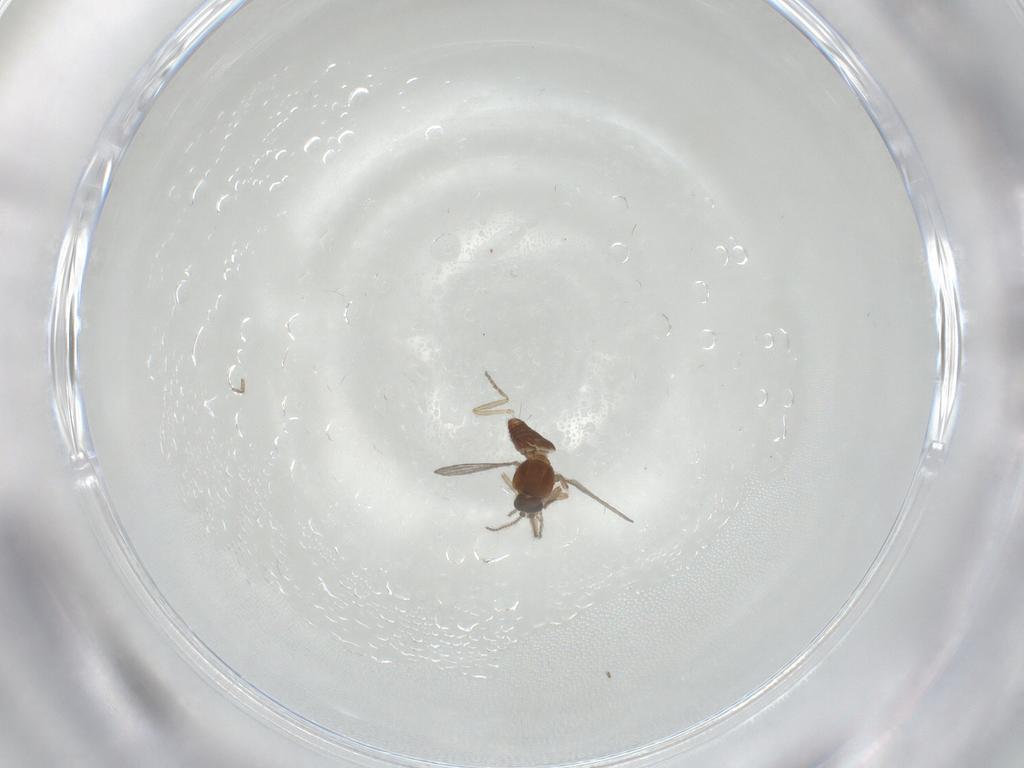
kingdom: Animalia
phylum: Arthropoda
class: Insecta
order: Diptera
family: Ceratopogonidae
